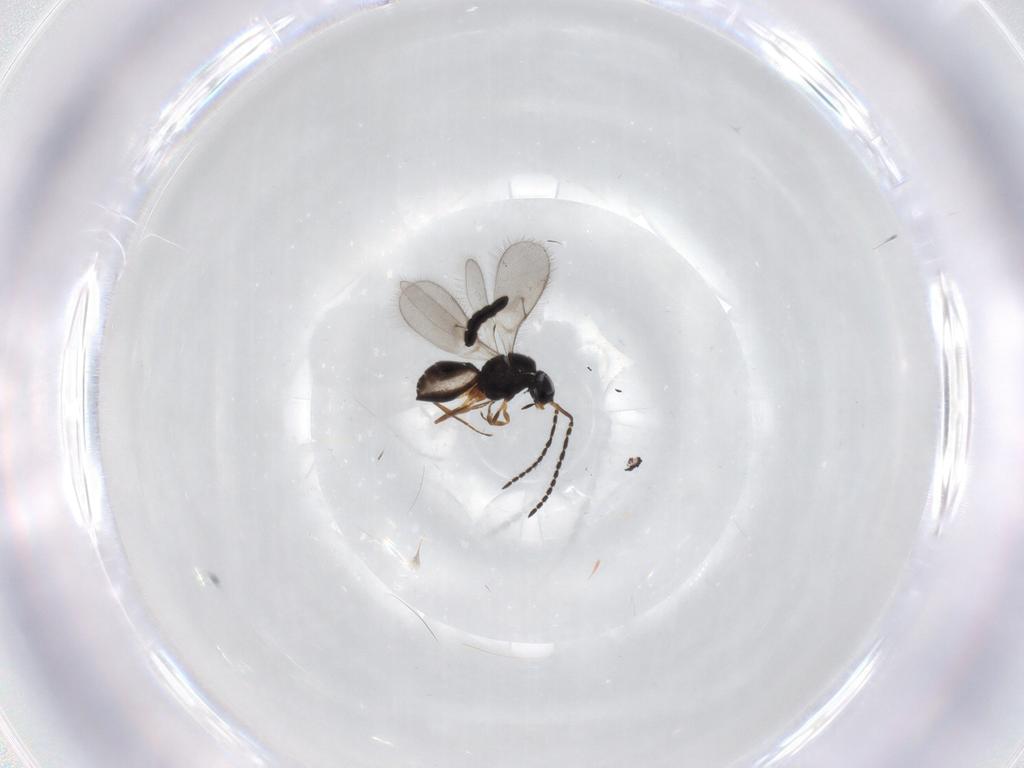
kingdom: Animalia
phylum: Arthropoda
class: Insecta
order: Hymenoptera
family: Scelionidae
